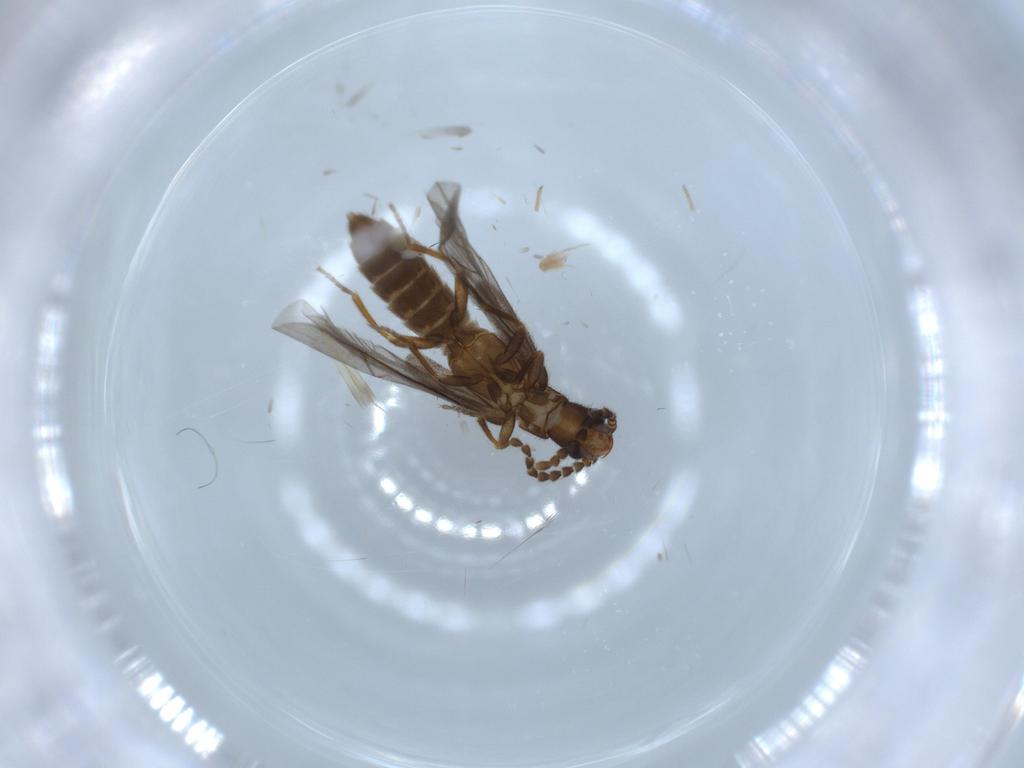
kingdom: Animalia
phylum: Arthropoda
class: Insecta
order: Coleoptera
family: Omethidae
